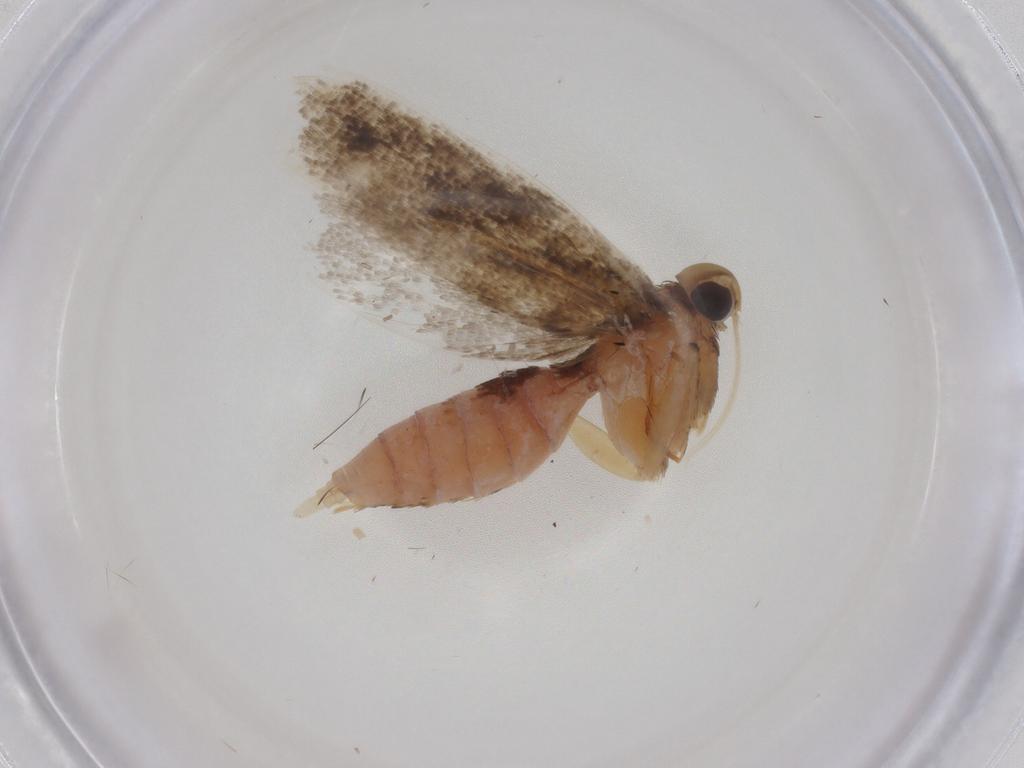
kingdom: Animalia
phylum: Arthropoda
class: Insecta
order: Lepidoptera
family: Gelechiidae
